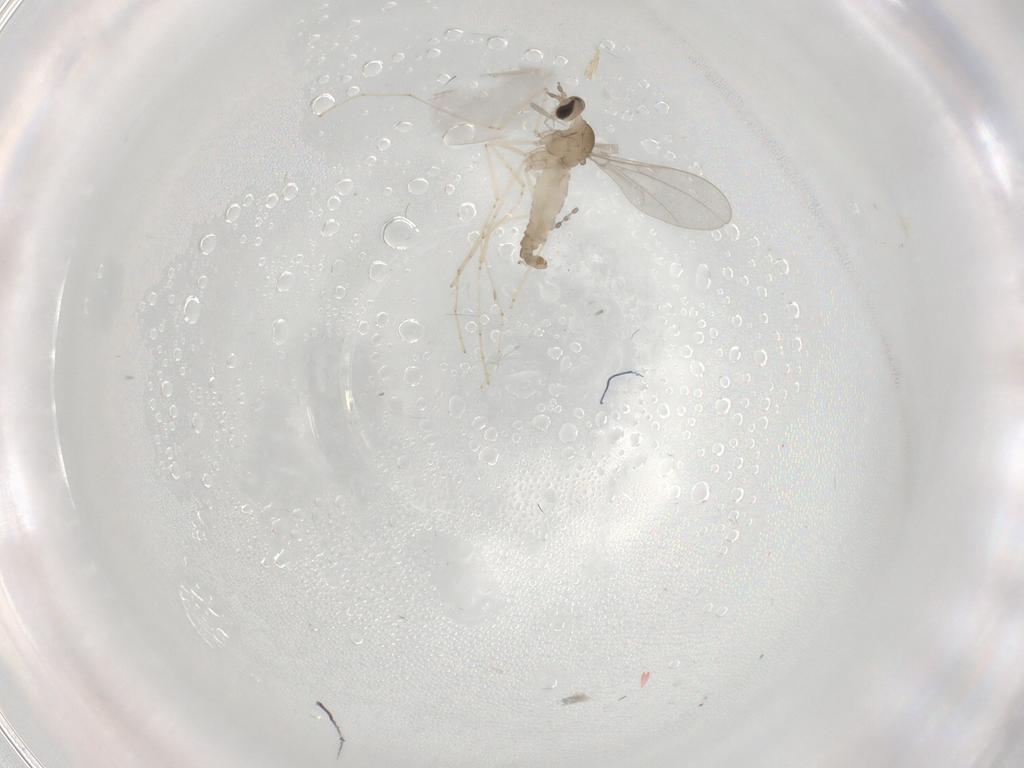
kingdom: Animalia
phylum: Arthropoda
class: Insecta
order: Diptera
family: Cecidomyiidae
